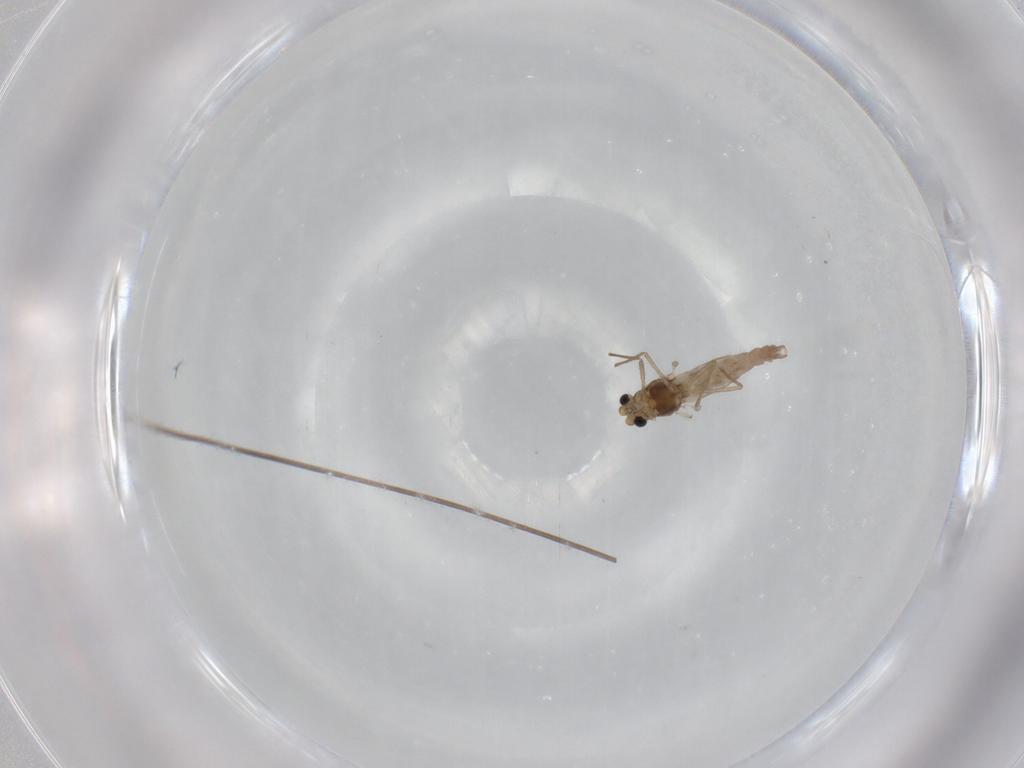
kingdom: Animalia
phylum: Arthropoda
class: Insecta
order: Diptera
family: Chironomidae
